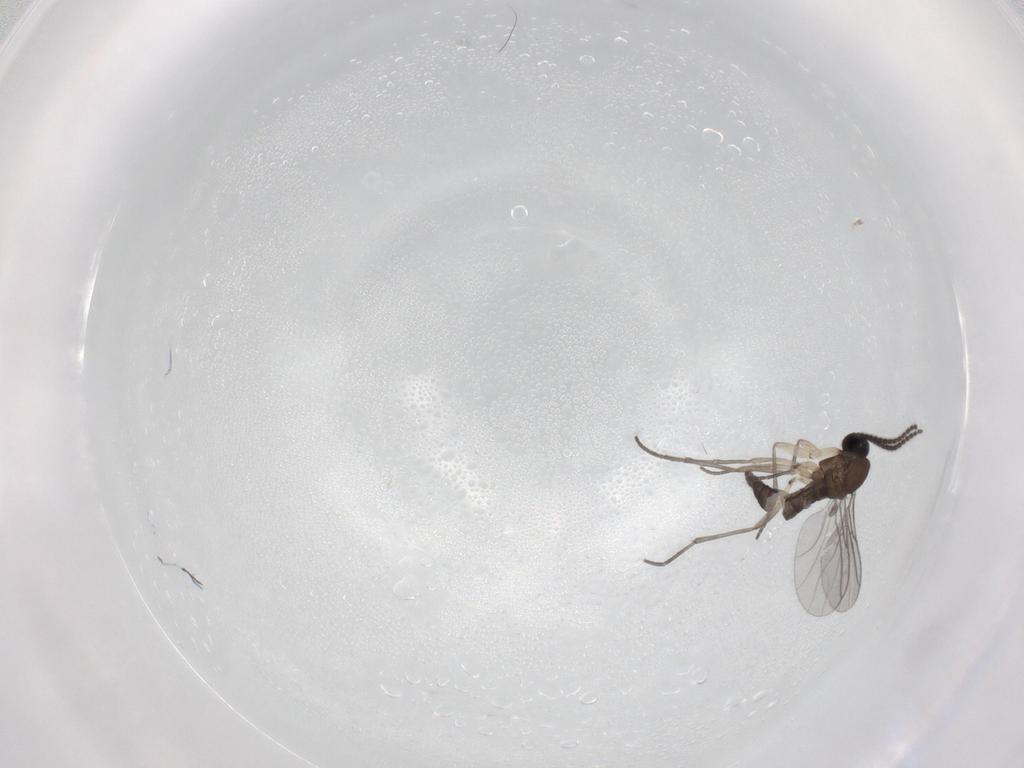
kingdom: Animalia
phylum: Arthropoda
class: Insecta
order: Diptera
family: Sciaridae
